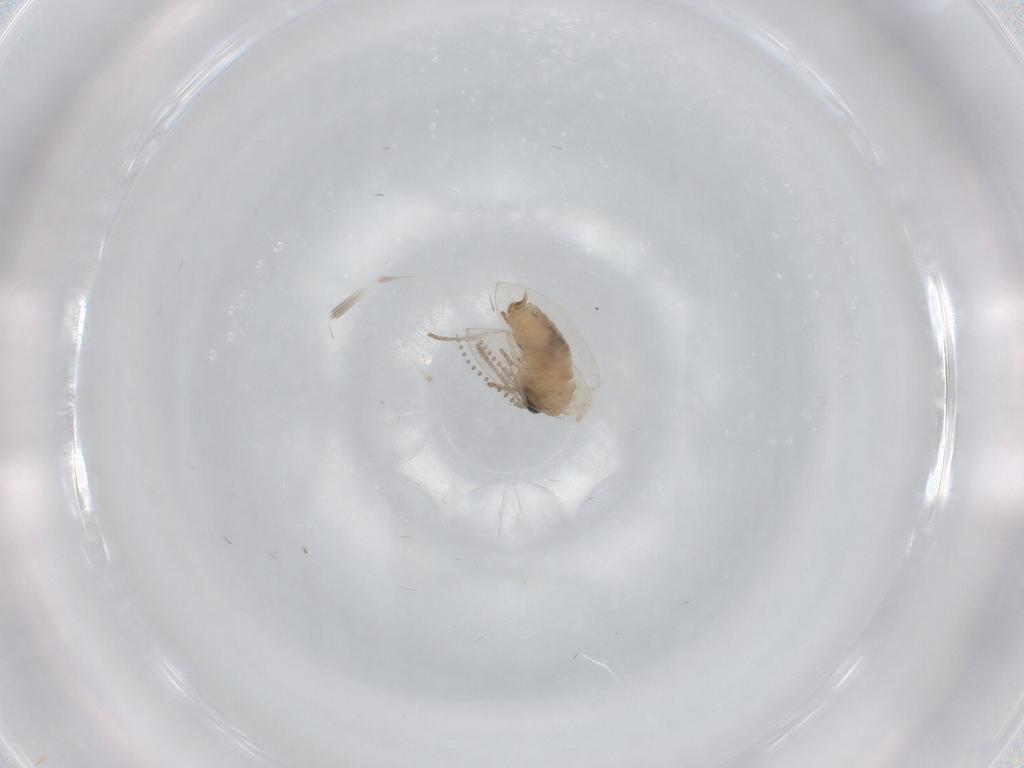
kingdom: Animalia
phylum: Arthropoda
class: Insecta
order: Diptera
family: Psychodidae
